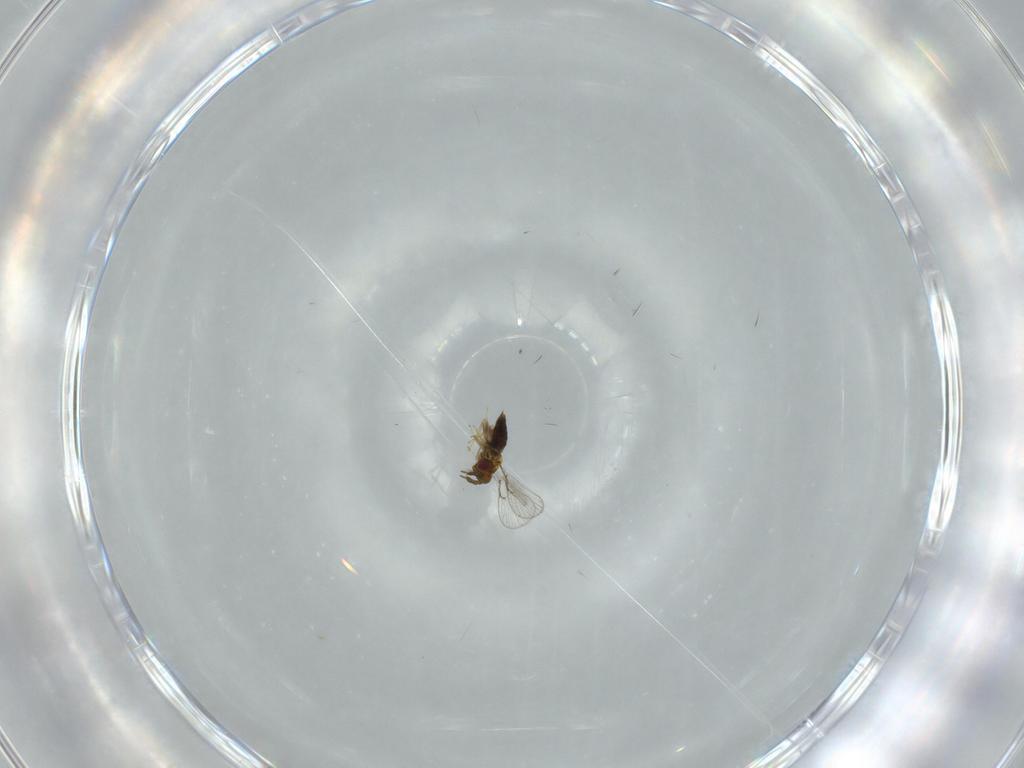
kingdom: Animalia
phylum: Arthropoda
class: Insecta
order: Hymenoptera
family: Trichogrammatidae
